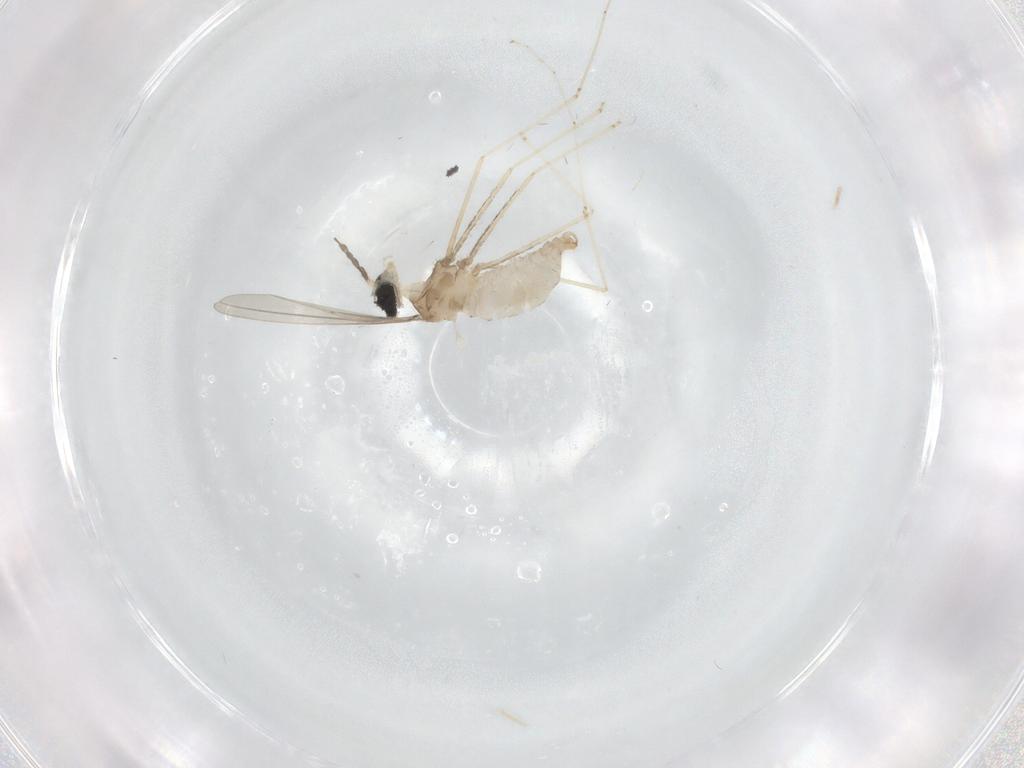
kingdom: Animalia
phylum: Arthropoda
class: Insecta
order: Diptera
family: Cecidomyiidae
